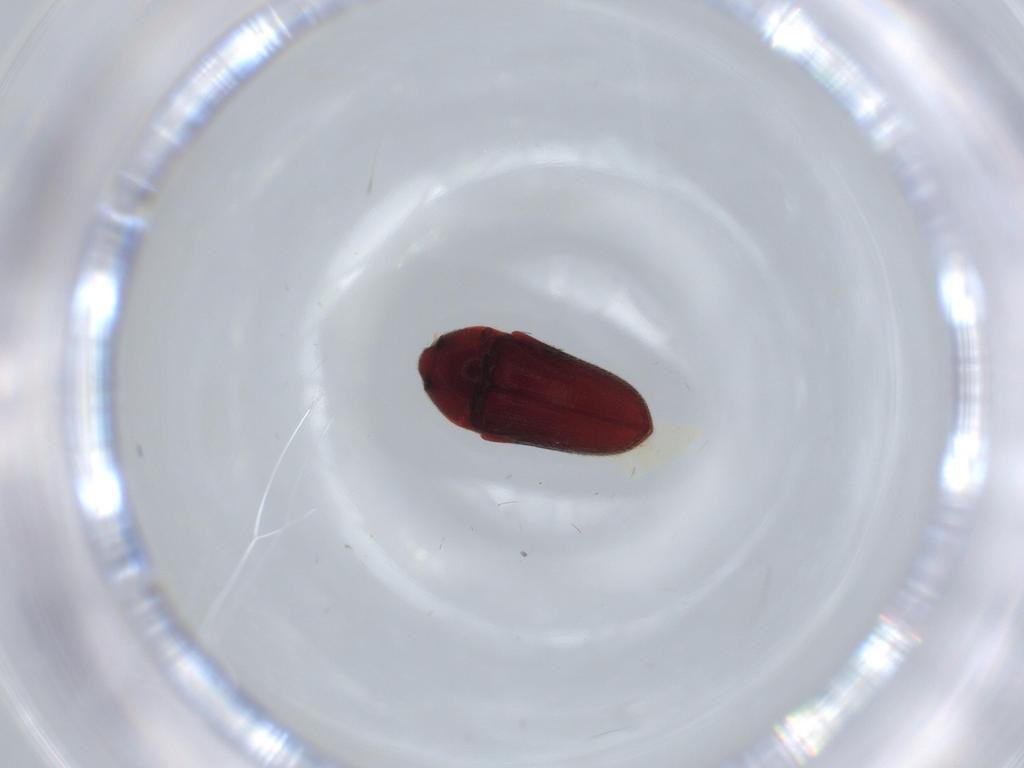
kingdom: Animalia
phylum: Arthropoda
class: Insecta
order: Coleoptera
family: Throscidae
